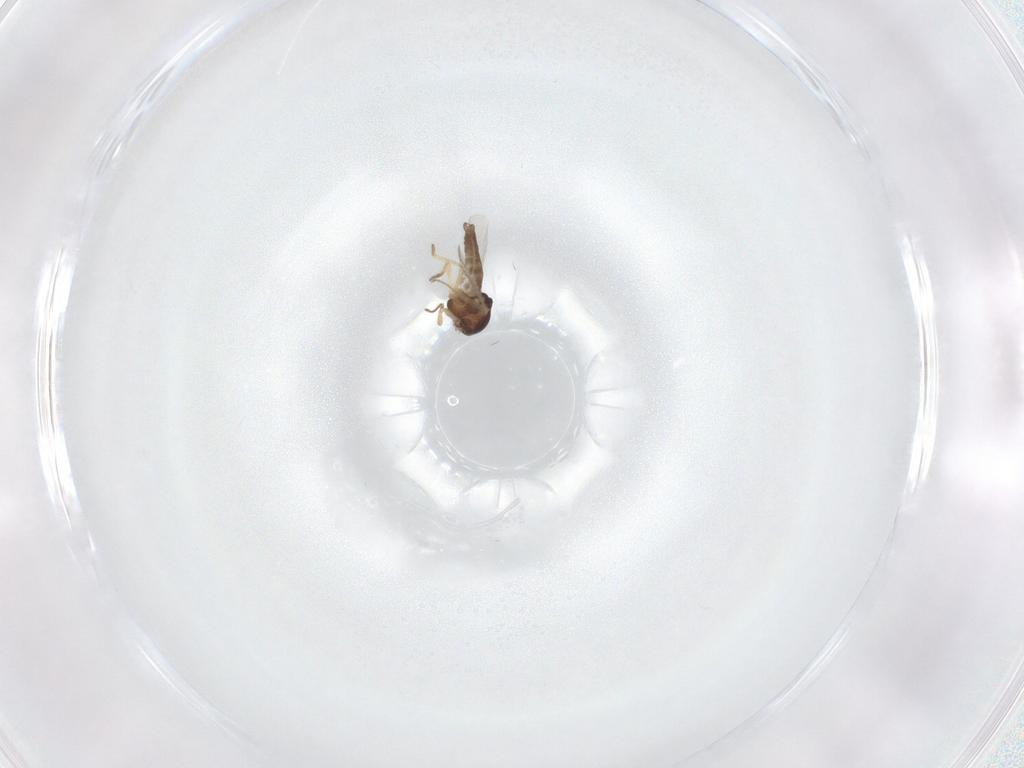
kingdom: Animalia
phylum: Arthropoda
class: Insecta
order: Diptera
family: Ceratopogonidae
